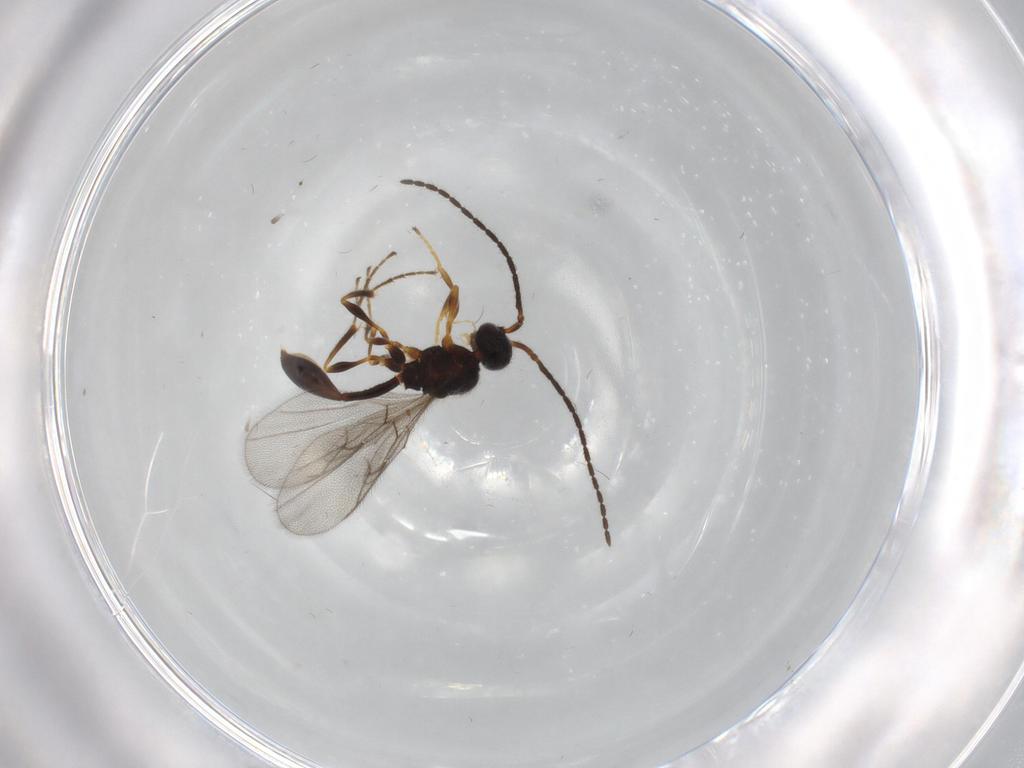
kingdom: Animalia
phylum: Arthropoda
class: Insecta
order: Hymenoptera
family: Diapriidae
